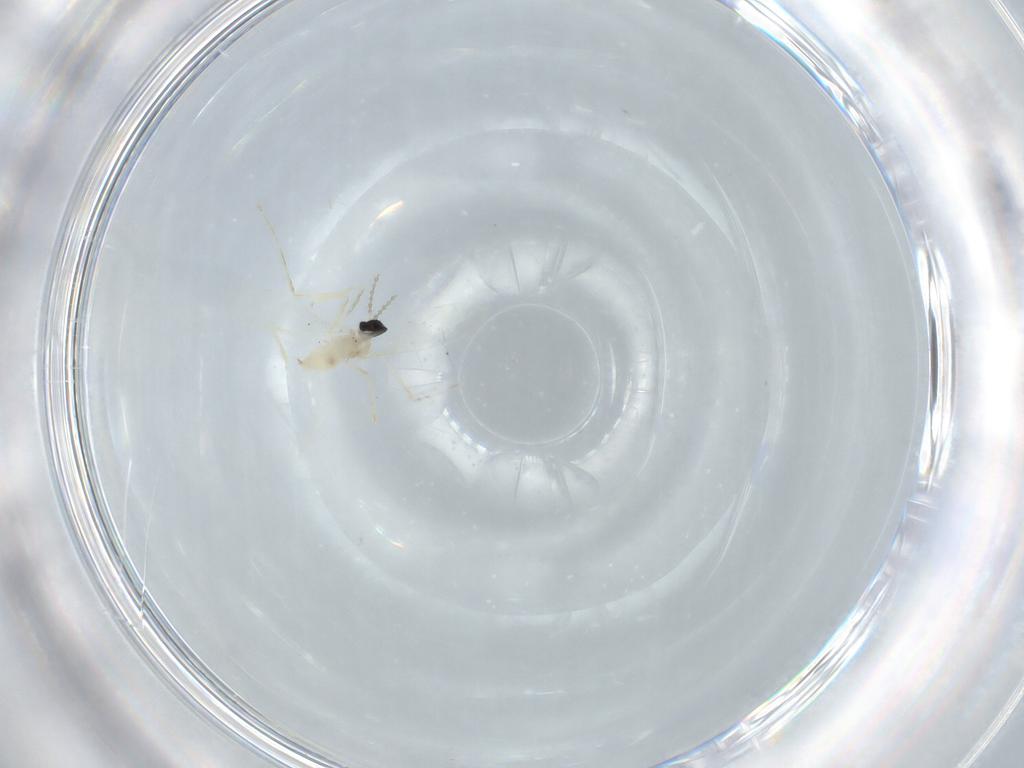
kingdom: Animalia
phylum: Arthropoda
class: Insecta
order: Diptera
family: Cecidomyiidae
